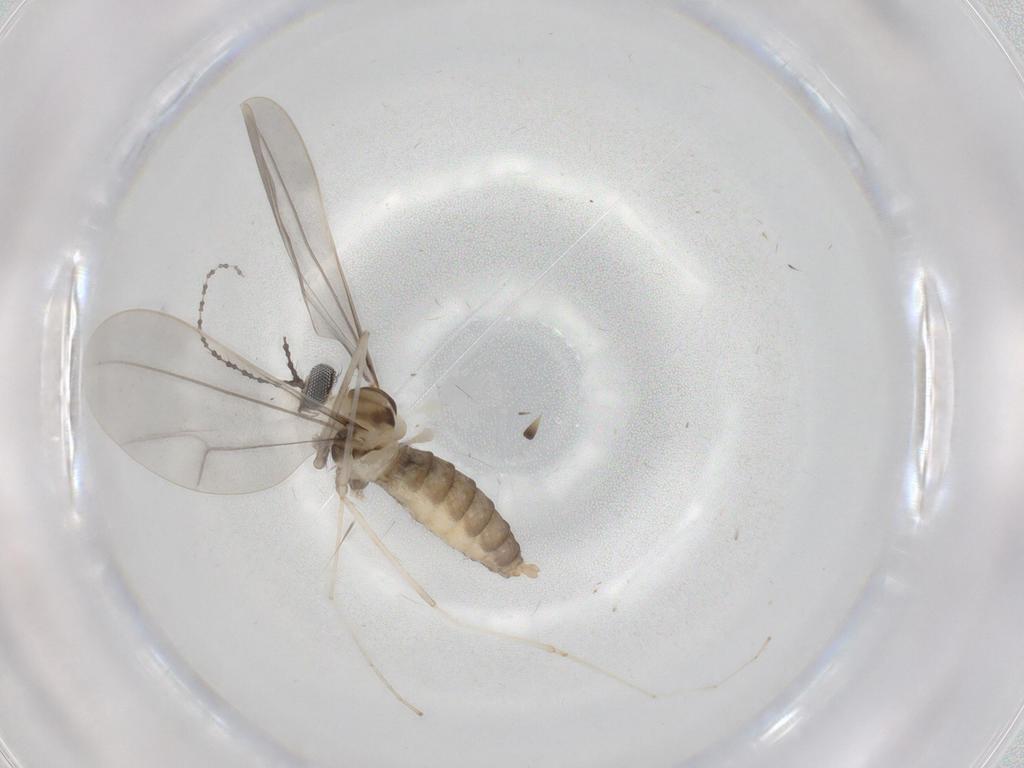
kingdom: Animalia
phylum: Arthropoda
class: Insecta
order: Diptera
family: Cecidomyiidae
